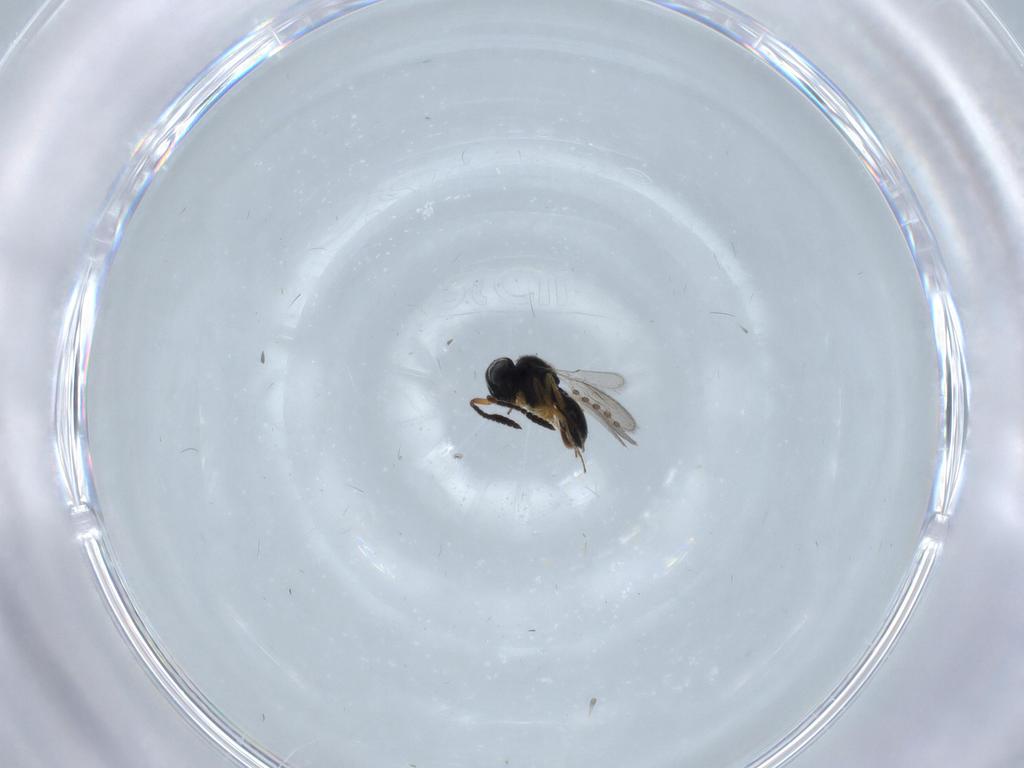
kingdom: Animalia
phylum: Arthropoda
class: Insecta
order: Hymenoptera
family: Scelionidae
